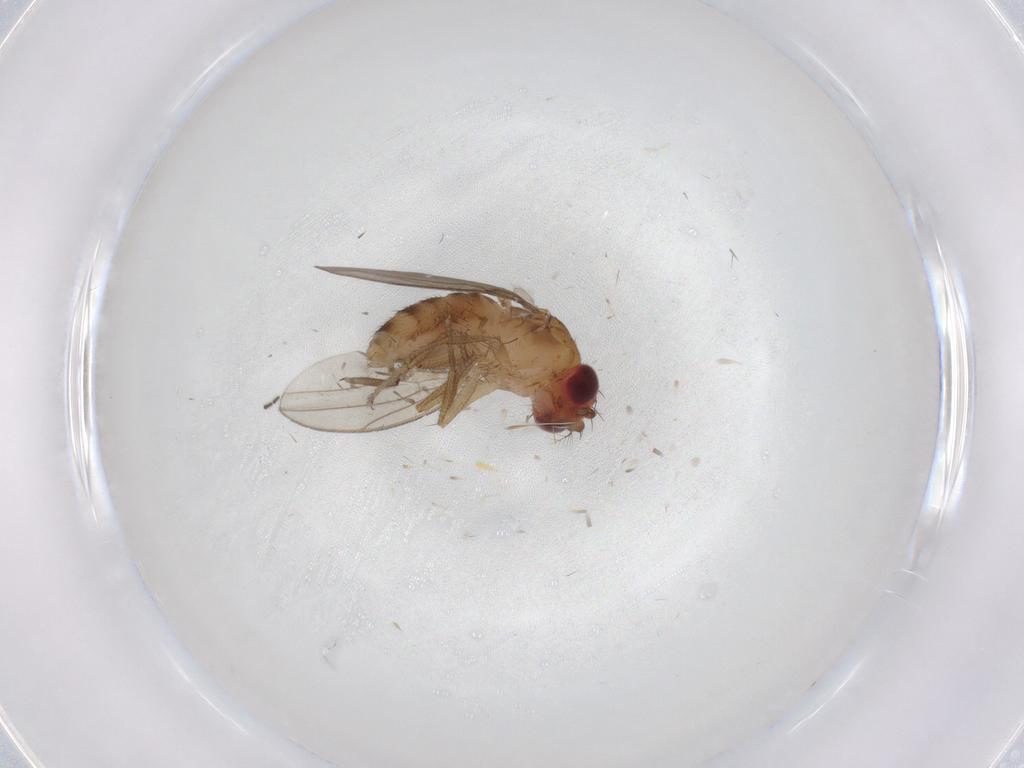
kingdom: Animalia
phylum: Arthropoda
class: Insecta
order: Diptera
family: Drosophilidae
